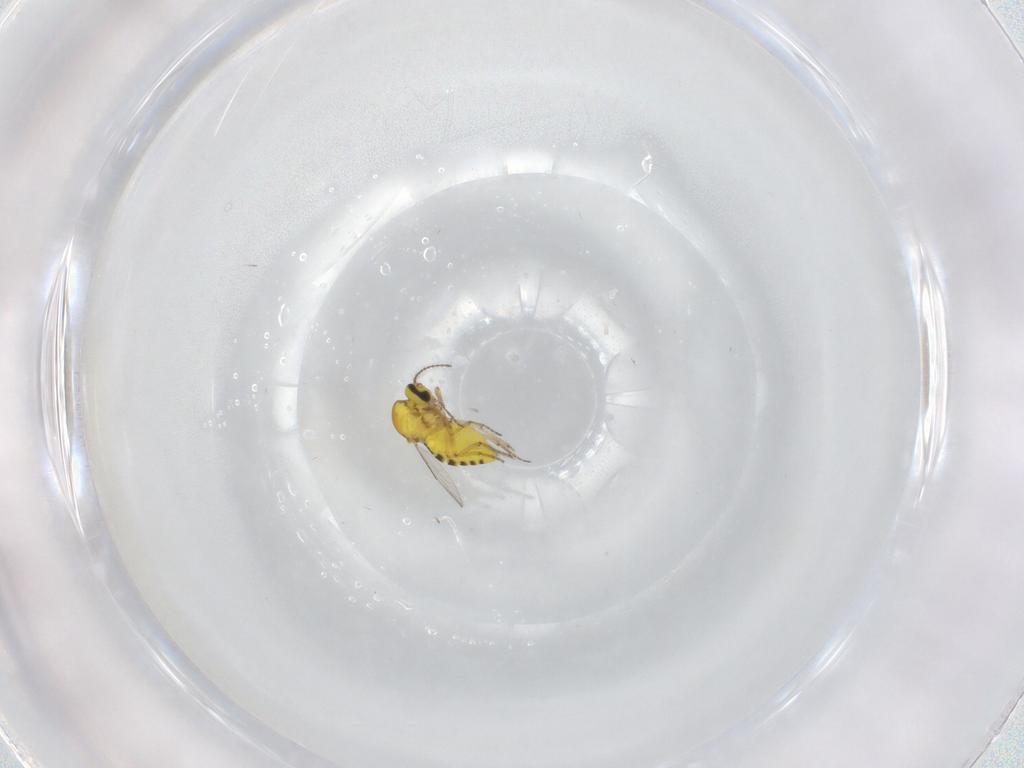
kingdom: Animalia
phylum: Arthropoda
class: Insecta
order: Diptera
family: Ceratopogonidae
